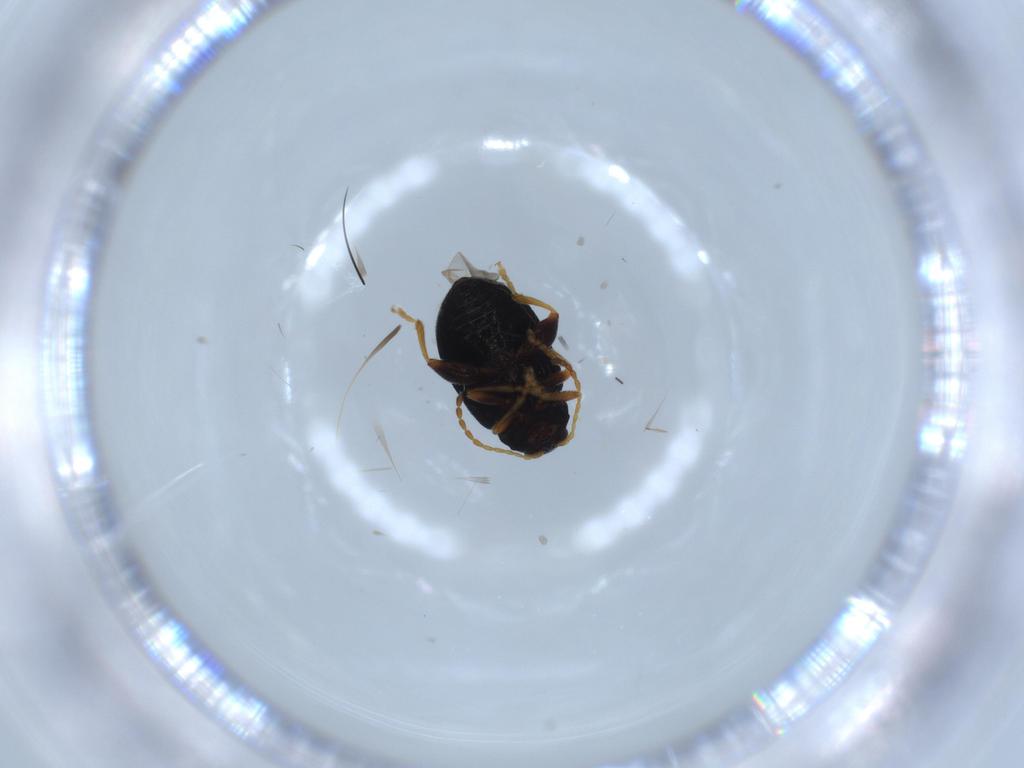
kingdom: Animalia
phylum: Arthropoda
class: Insecta
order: Coleoptera
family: Chrysomelidae
